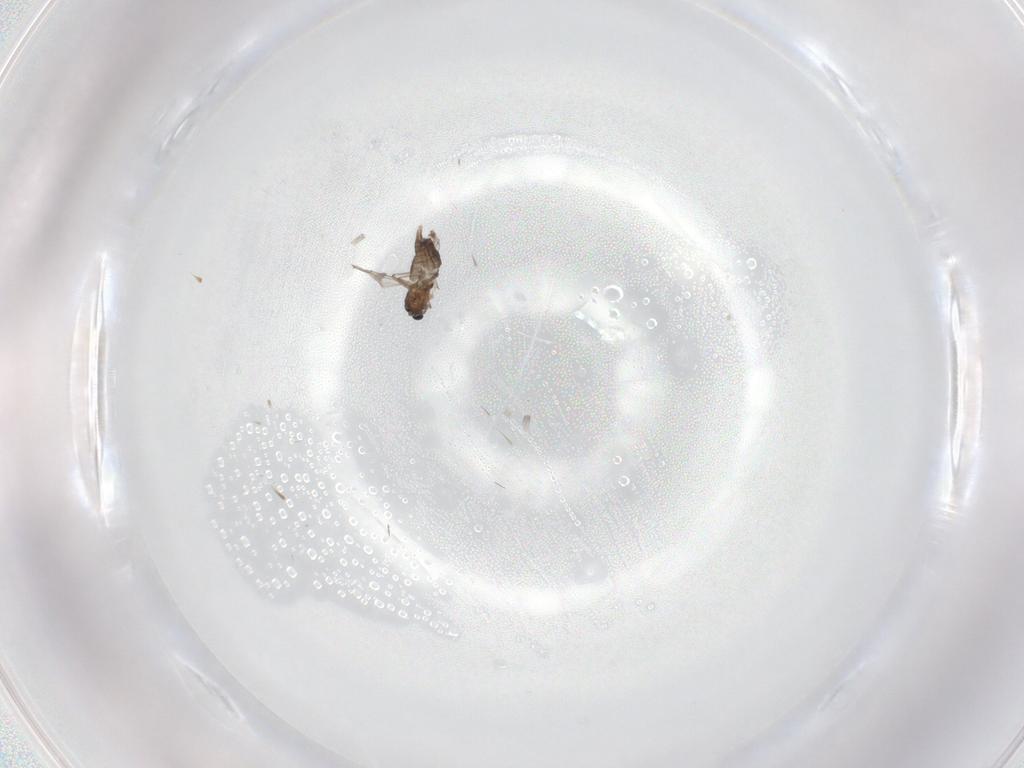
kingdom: Animalia
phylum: Arthropoda
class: Insecta
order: Diptera
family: Chironomidae
